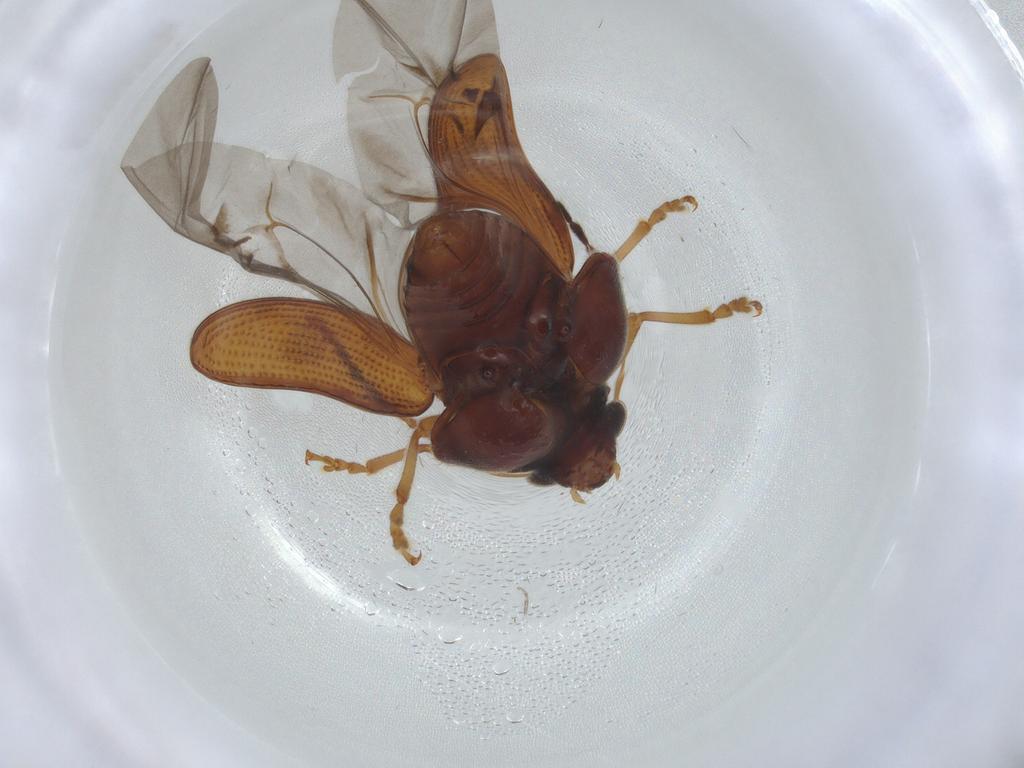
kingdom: Animalia
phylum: Arthropoda
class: Insecta
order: Coleoptera
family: Chrysomelidae
